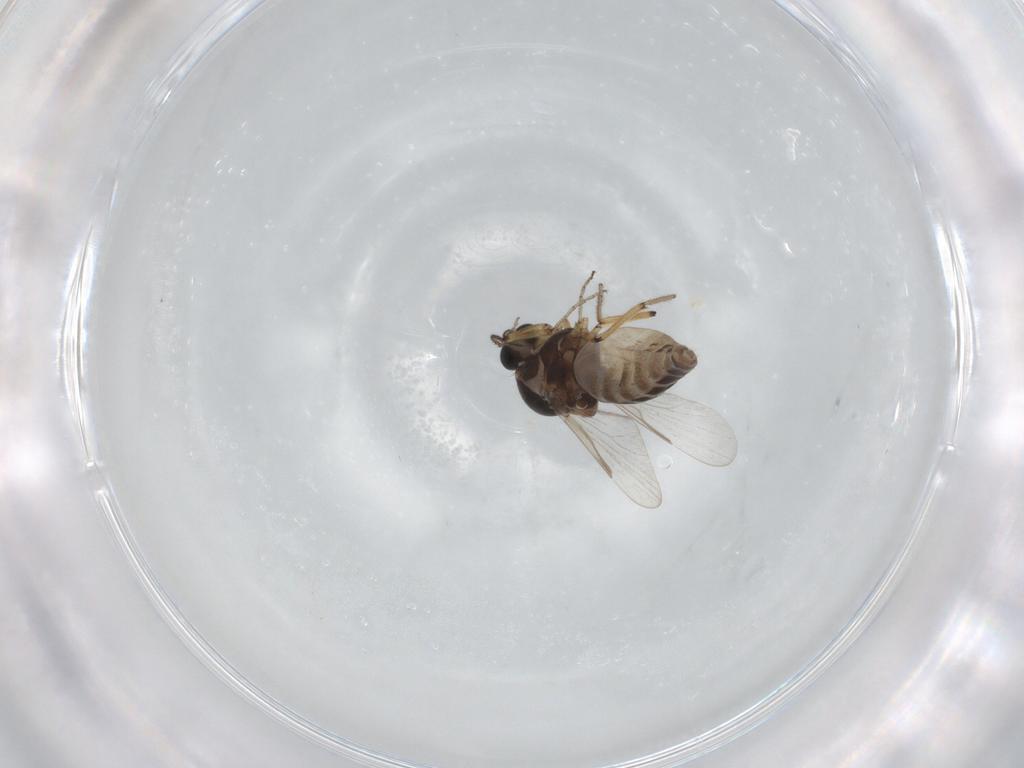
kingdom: Animalia
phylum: Arthropoda
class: Insecta
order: Diptera
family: Ceratopogonidae
